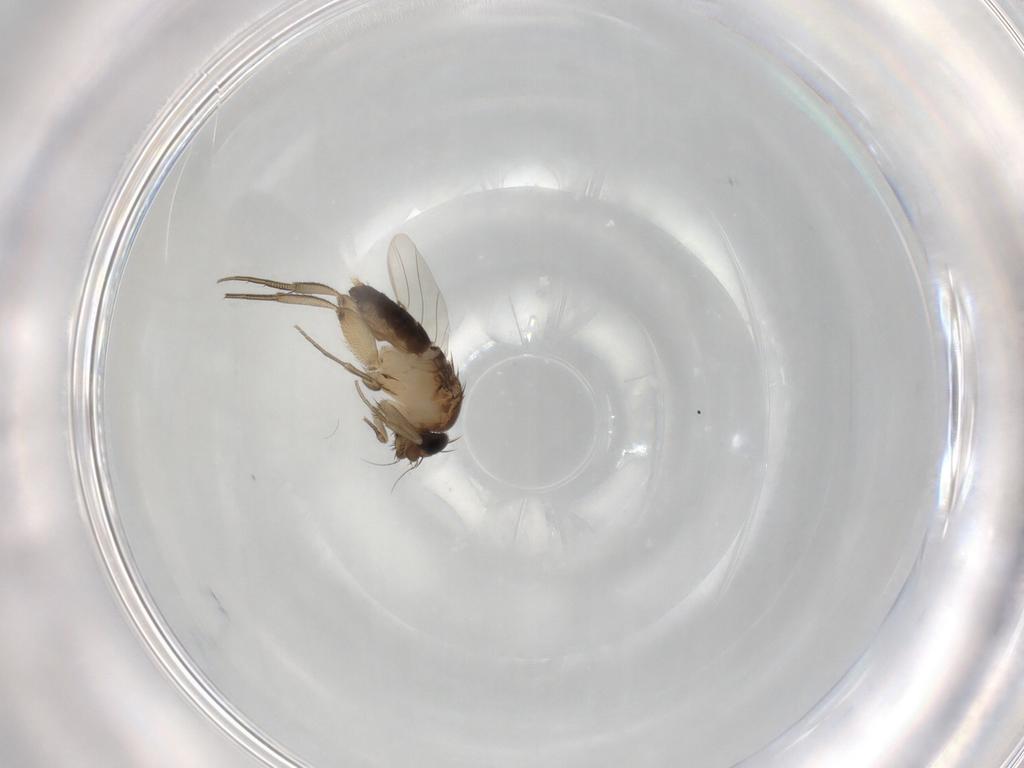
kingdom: Animalia
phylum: Arthropoda
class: Insecta
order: Diptera
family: Phoridae
